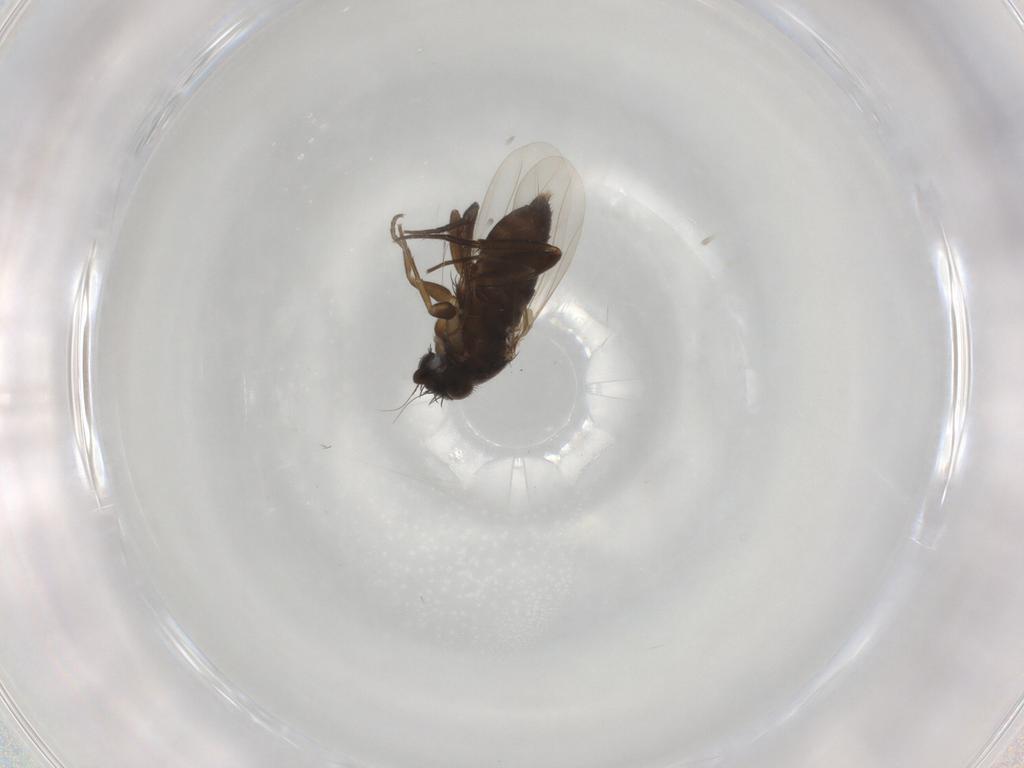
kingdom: Animalia
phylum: Arthropoda
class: Insecta
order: Diptera
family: Phoridae
